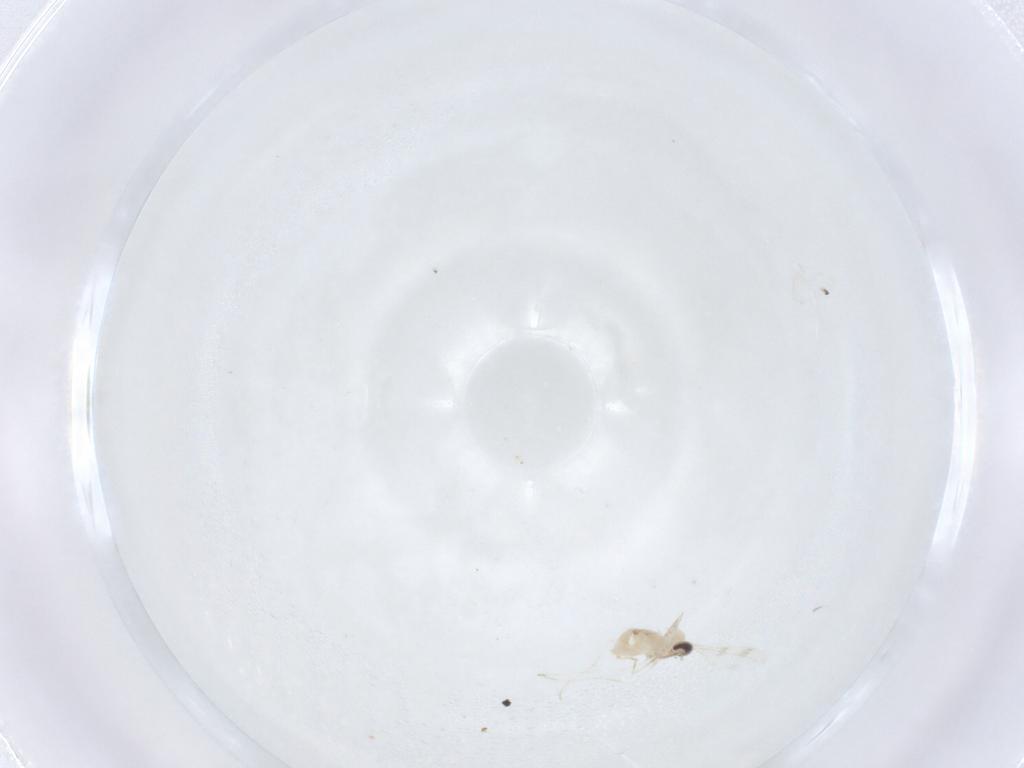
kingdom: Animalia
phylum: Arthropoda
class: Insecta
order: Diptera
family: Cecidomyiidae
